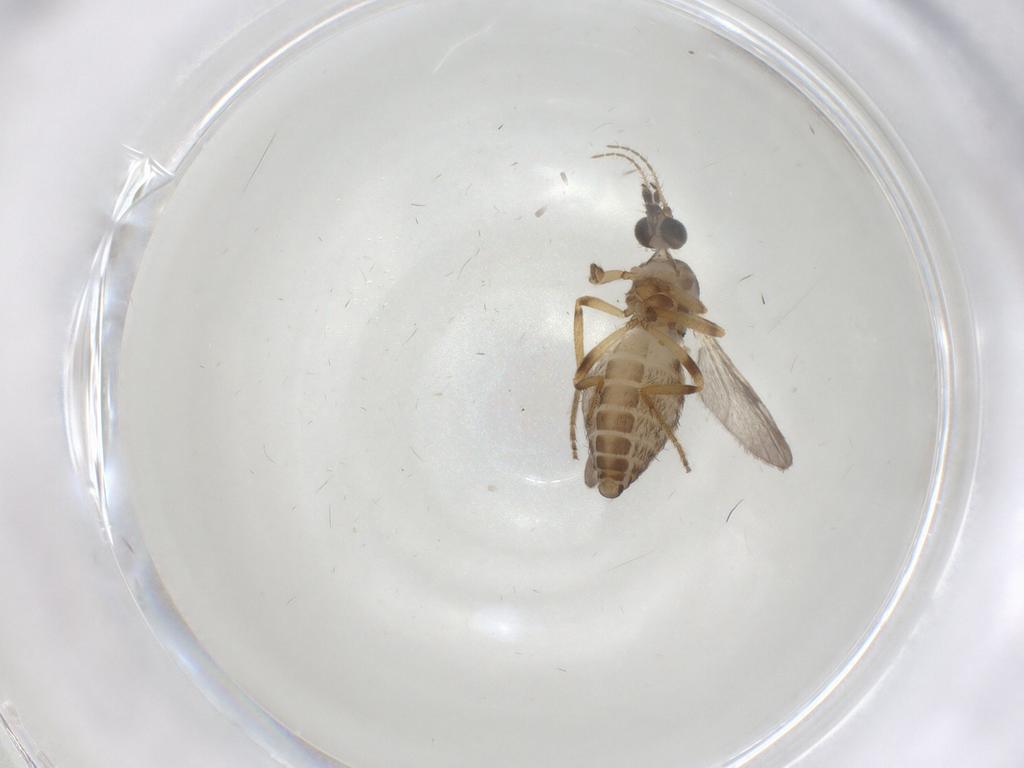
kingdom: Animalia
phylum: Arthropoda
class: Insecta
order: Diptera
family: Ceratopogonidae
